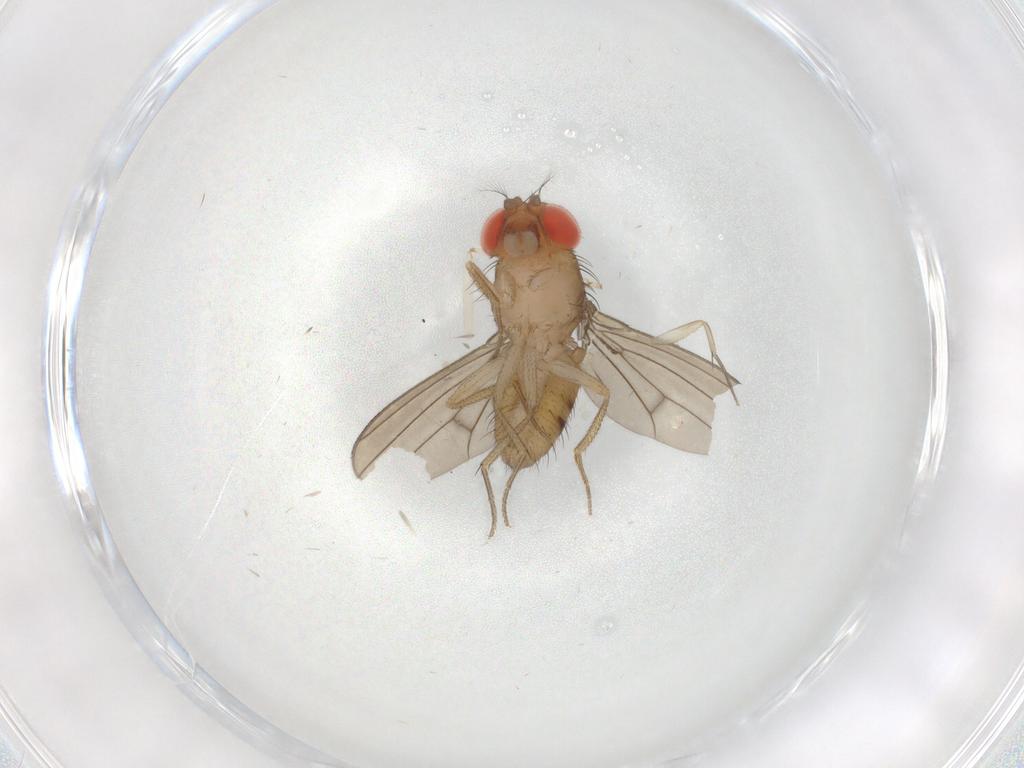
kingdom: Animalia
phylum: Arthropoda
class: Insecta
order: Diptera
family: Drosophilidae
